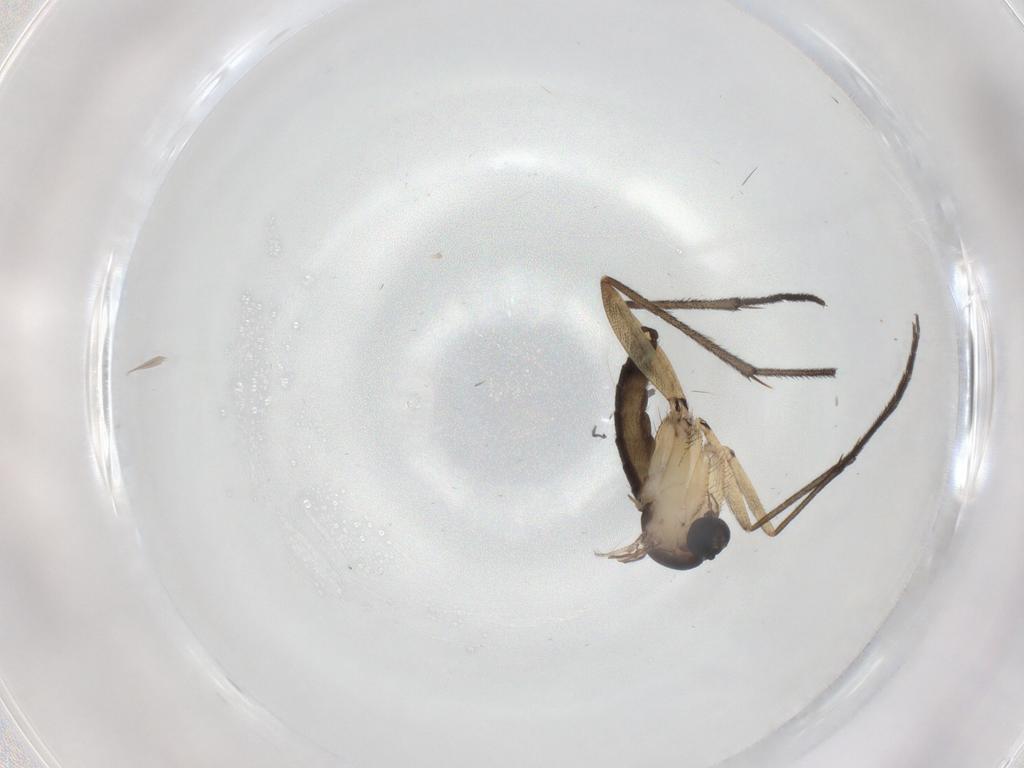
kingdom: Animalia
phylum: Arthropoda
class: Insecta
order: Diptera
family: Sciaridae
